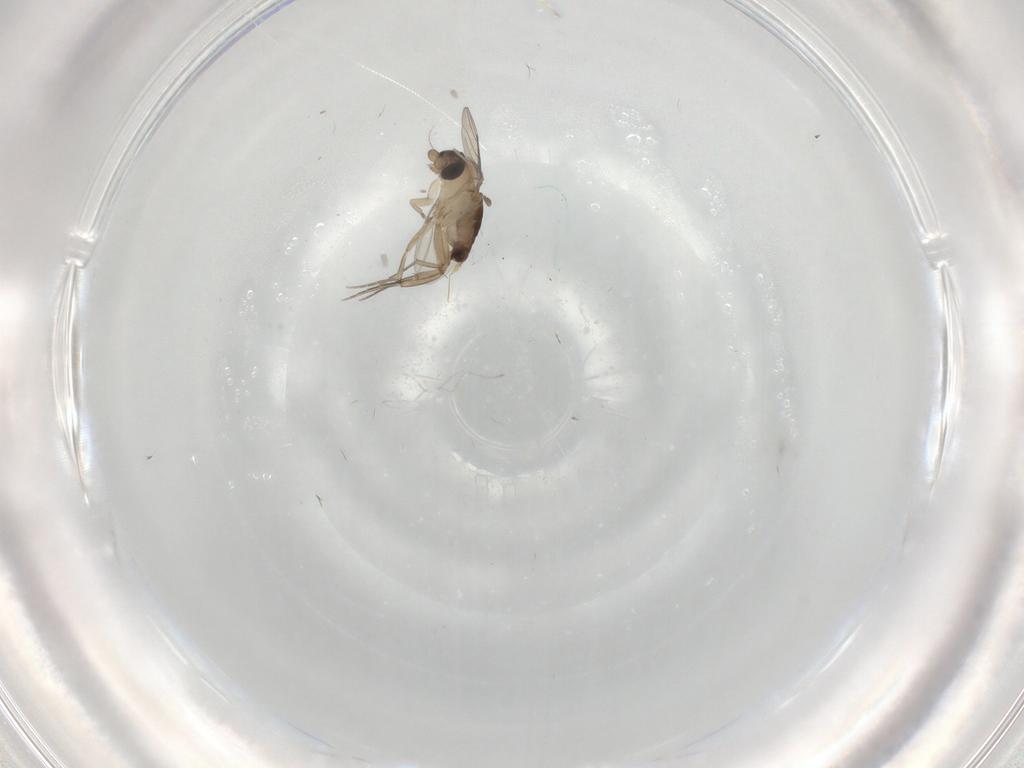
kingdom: Animalia
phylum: Arthropoda
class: Insecta
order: Diptera
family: Phoridae
